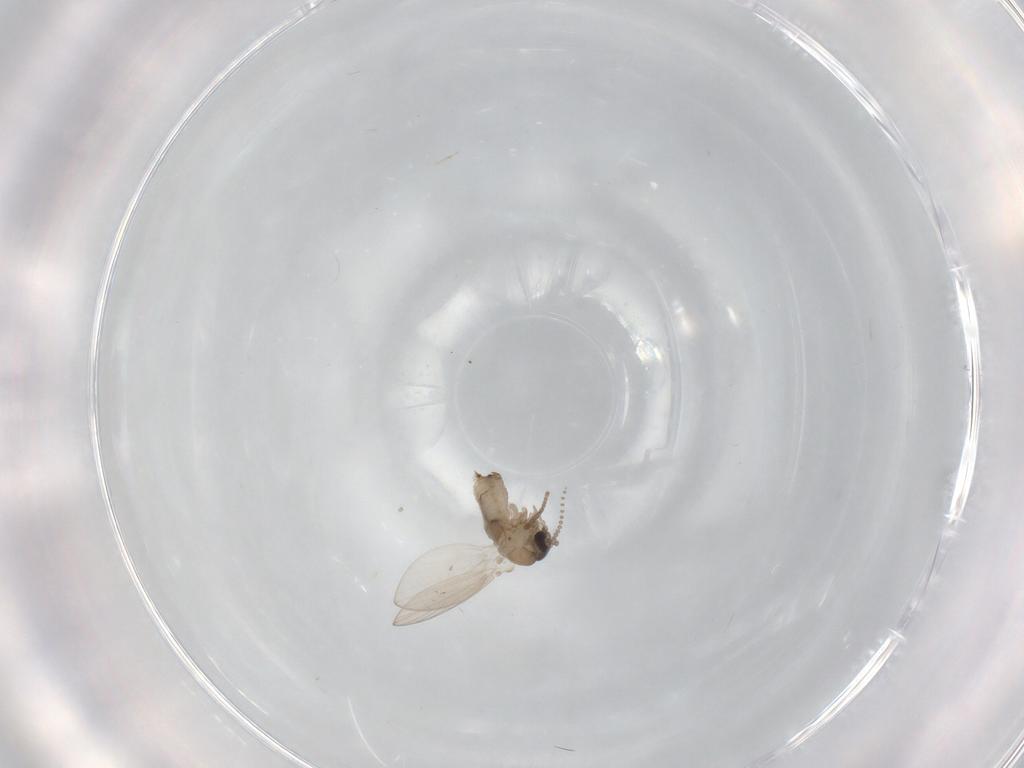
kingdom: Animalia
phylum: Arthropoda
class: Insecta
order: Diptera
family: Psychodidae
